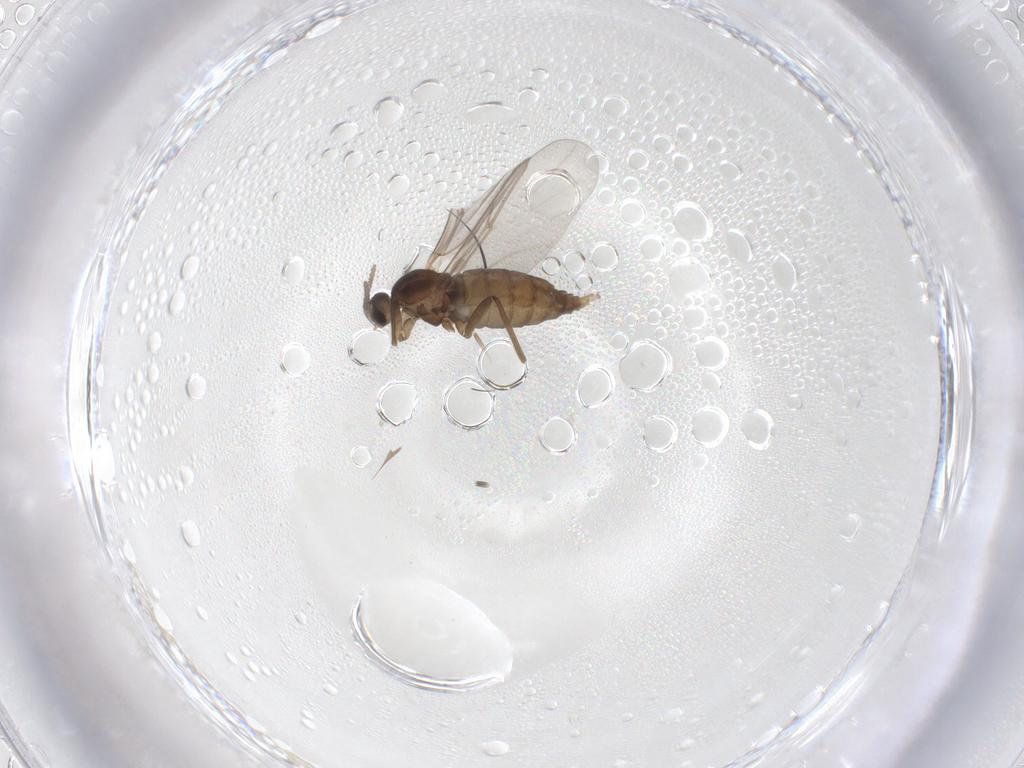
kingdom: Animalia
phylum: Arthropoda
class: Insecta
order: Diptera
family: Cecidomyiidae
